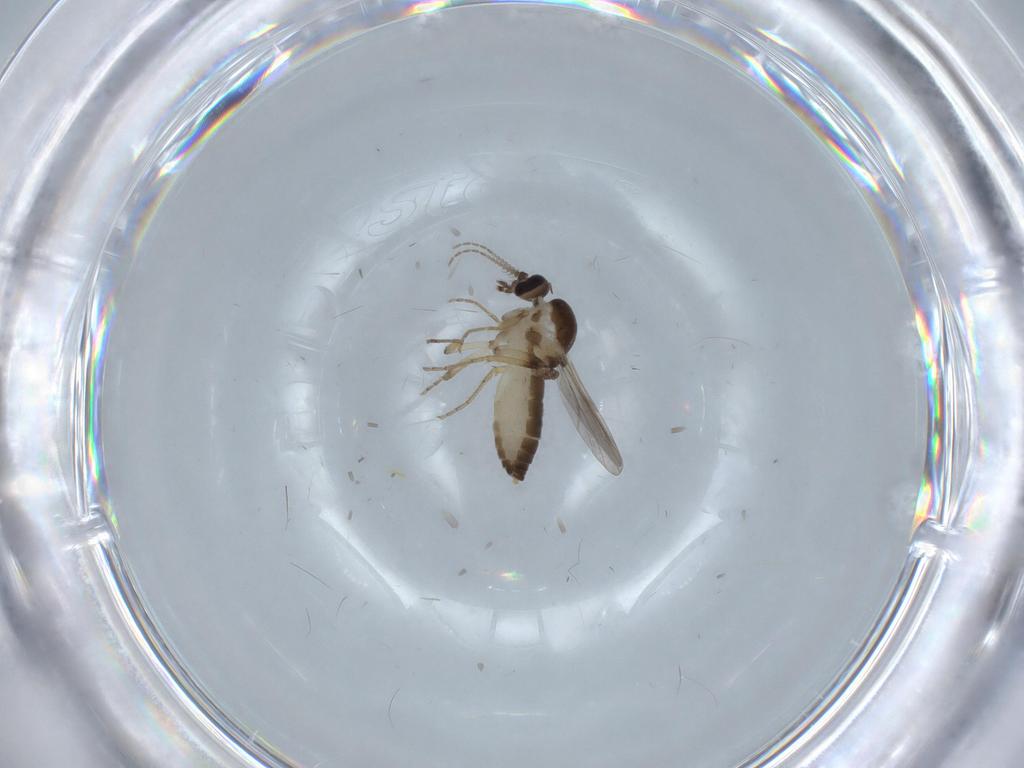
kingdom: Animalia
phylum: Arthropoda
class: Insecta
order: Diptera
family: Ceratopogonidae
